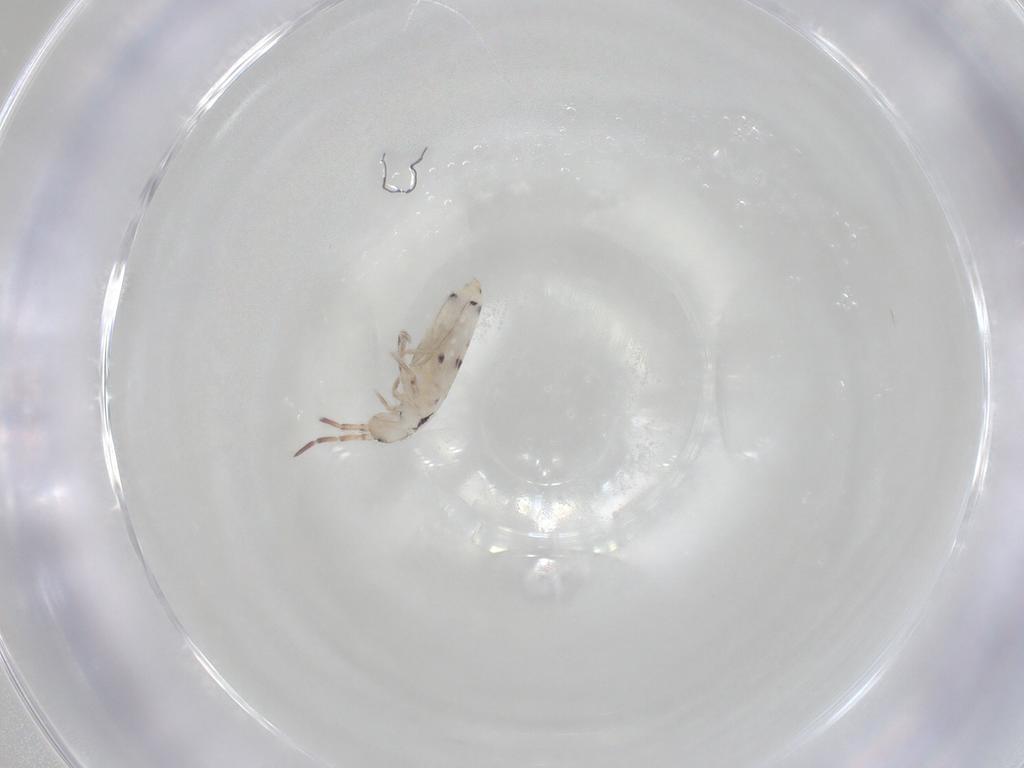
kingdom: Animalia
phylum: Arthropoda
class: Collembola
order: Entomobryomorpha
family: Entomobryidae
